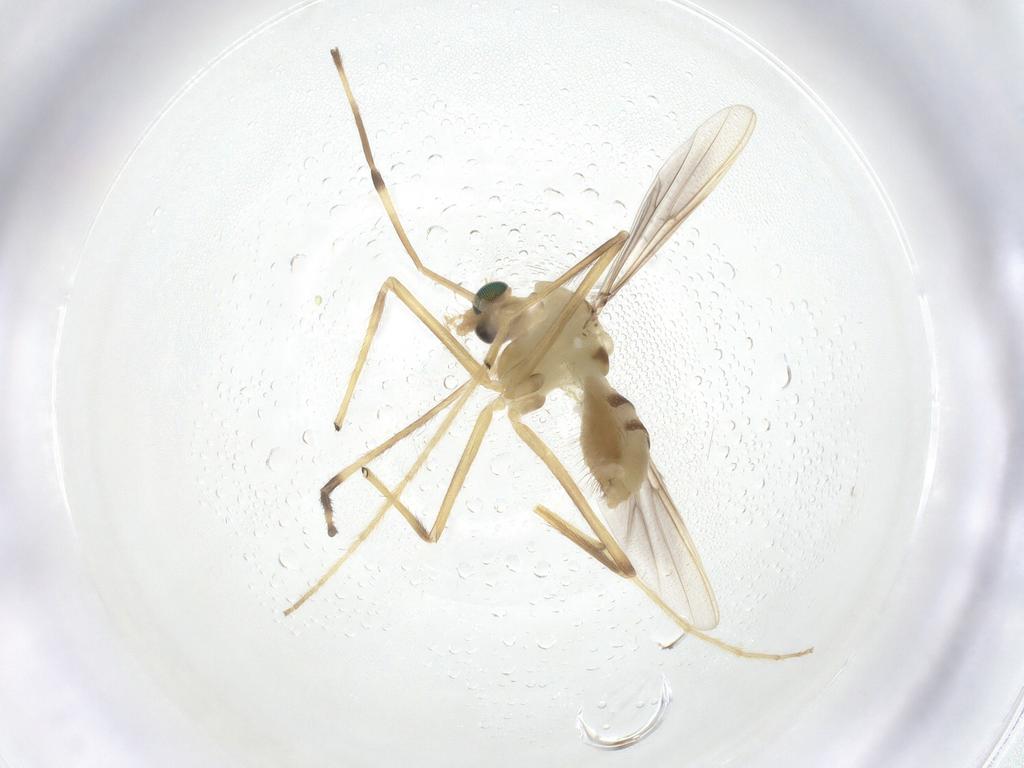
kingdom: Animalia
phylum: Arthropoda
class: Insecta
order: Diptera
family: Chironomidae
